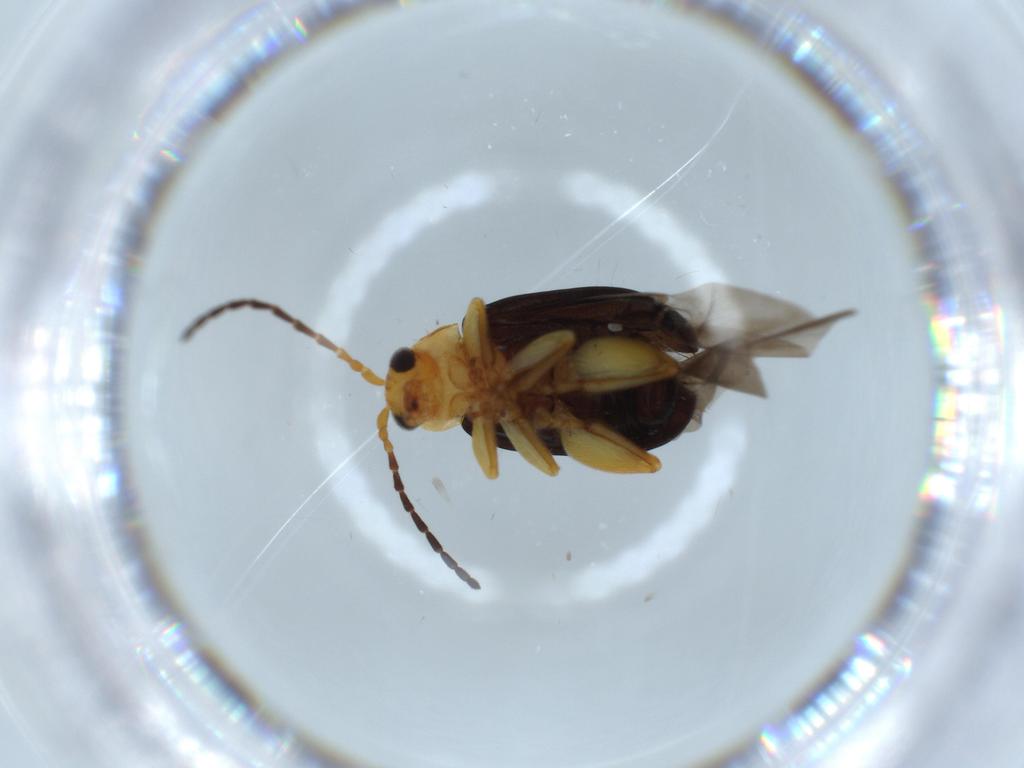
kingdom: Animalia
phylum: Arthropoda
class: Insecta
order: Coleoptera
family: Chrysomelidae
